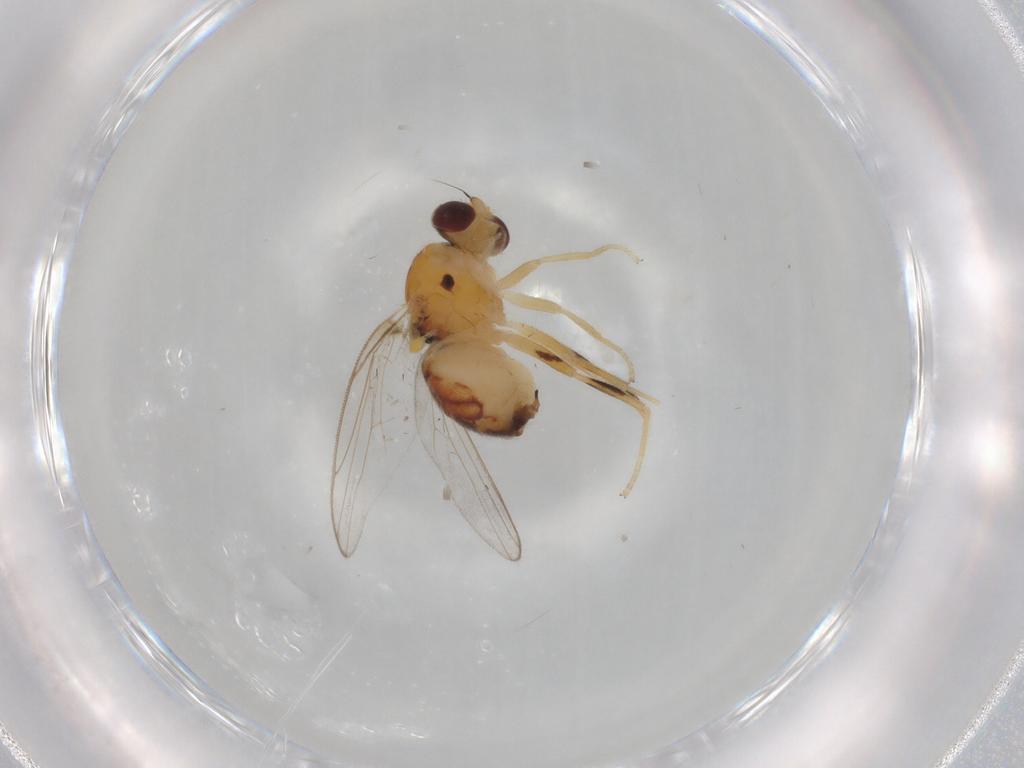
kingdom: Animalia
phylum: Arthropoda
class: Insecta
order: Diptera
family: Chloropidae
